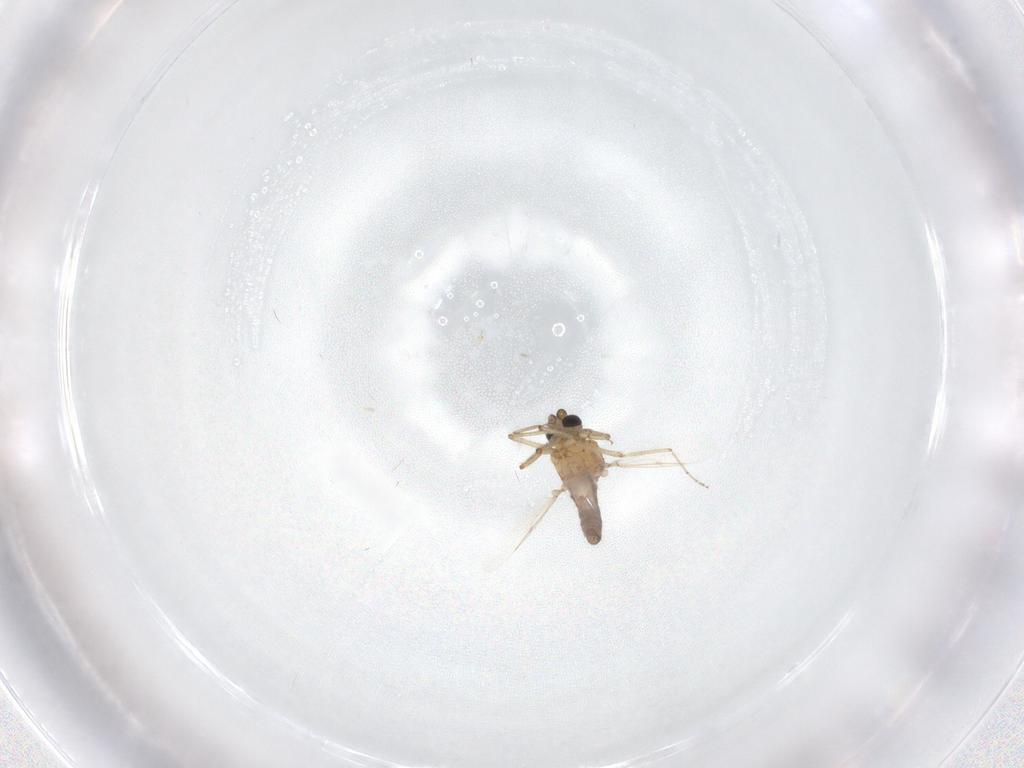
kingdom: Animalia
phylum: Arthropoda
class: Insecta
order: Diptera
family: Ceratopogonidae
